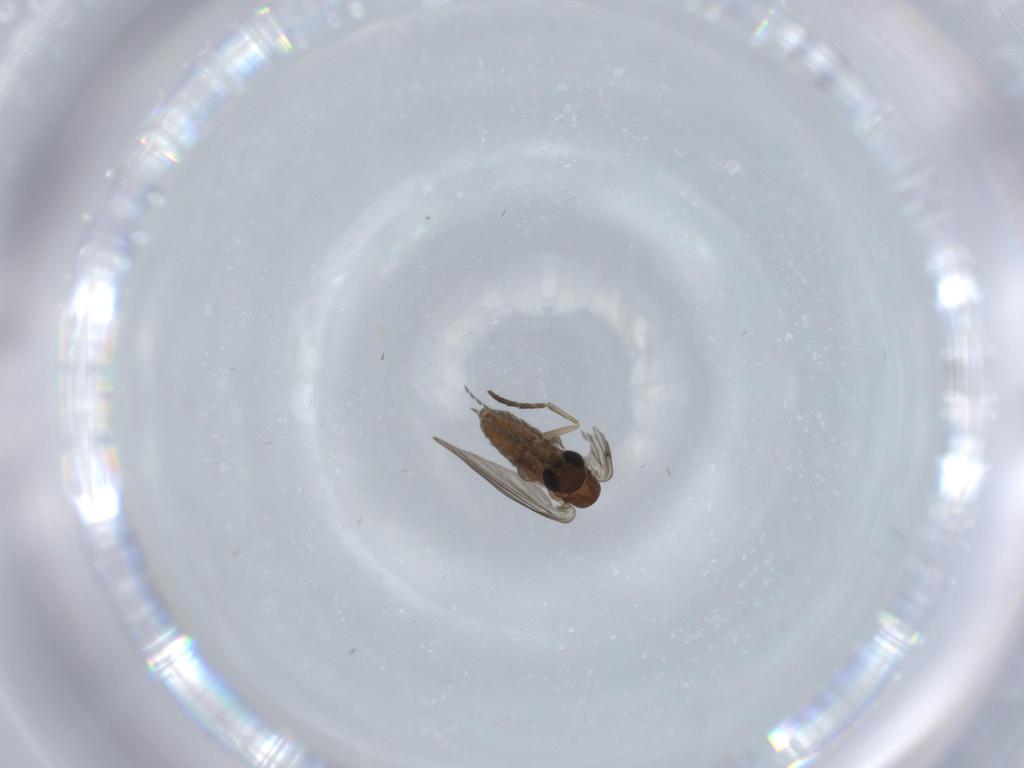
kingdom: Animalia
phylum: Arthropoda
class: Insecta
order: Diptera
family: Psychodidae
